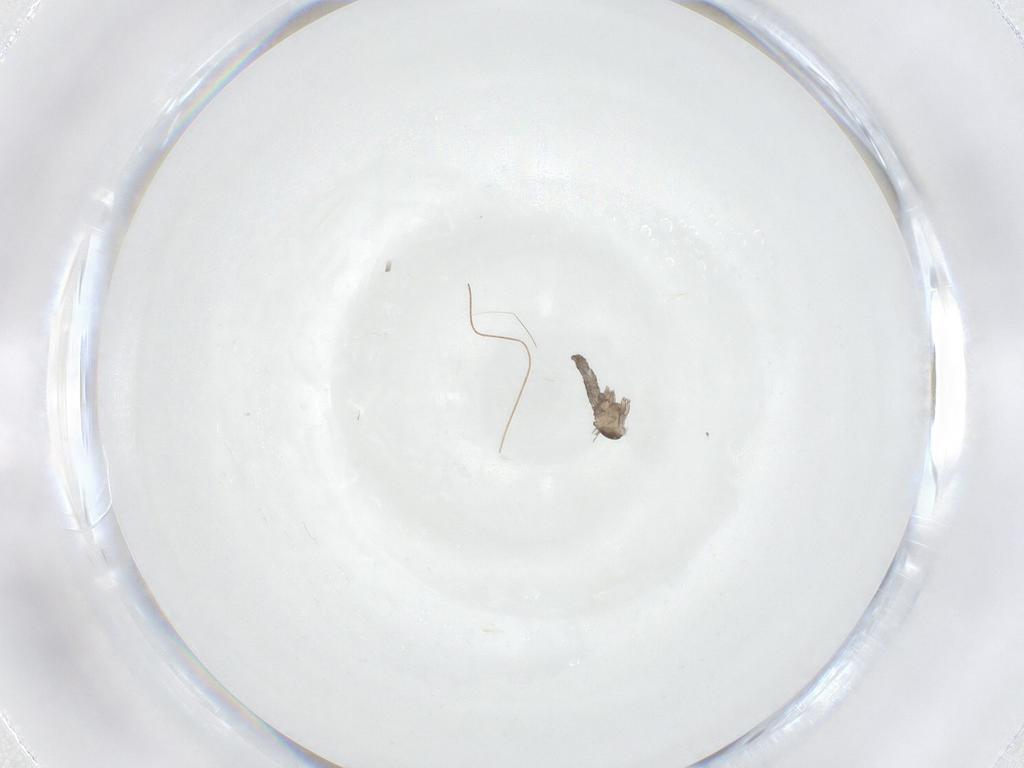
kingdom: Animalia
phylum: Arthropoda
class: Insecta
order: Diptera
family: Cecidomyiidae
